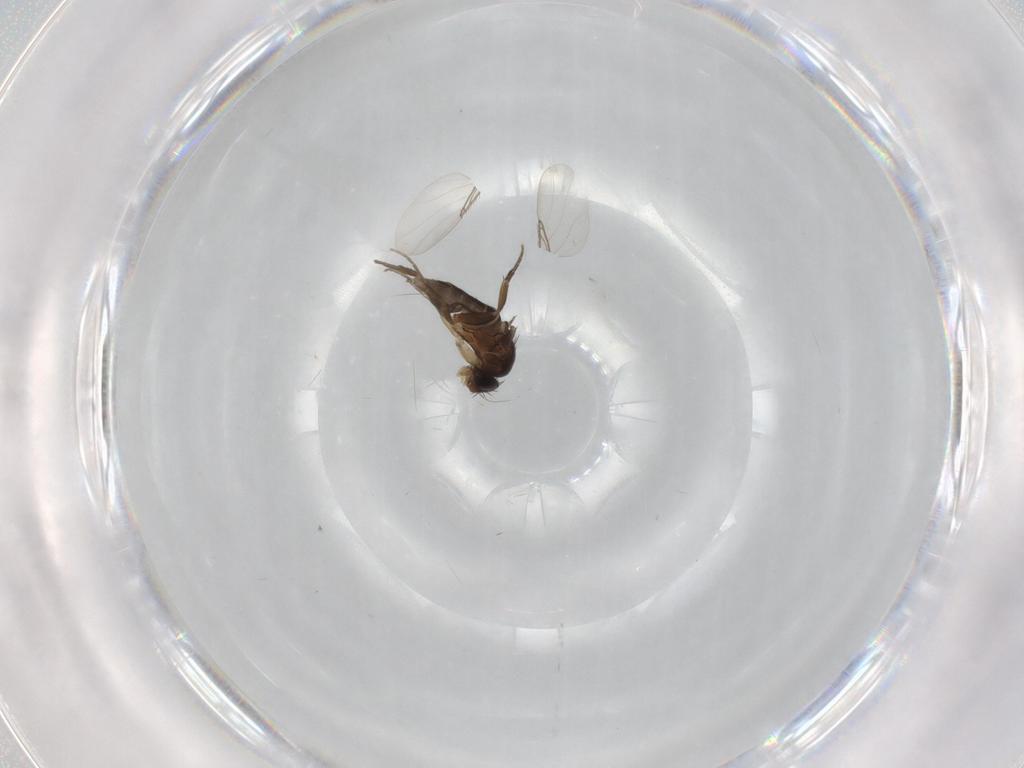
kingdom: Animalia
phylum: Arthropoda
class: Insecta
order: Diptera
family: Phoridae
